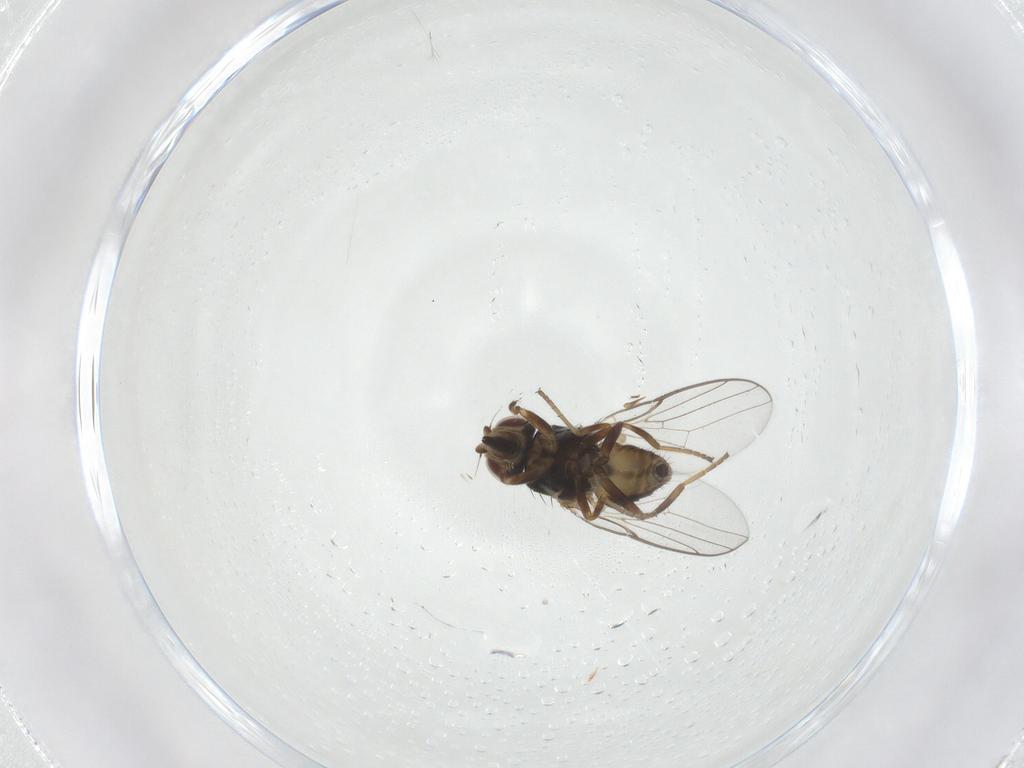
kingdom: Animalia
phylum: Arthropoda
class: Insecta
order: Diptera
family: Chloropidae
